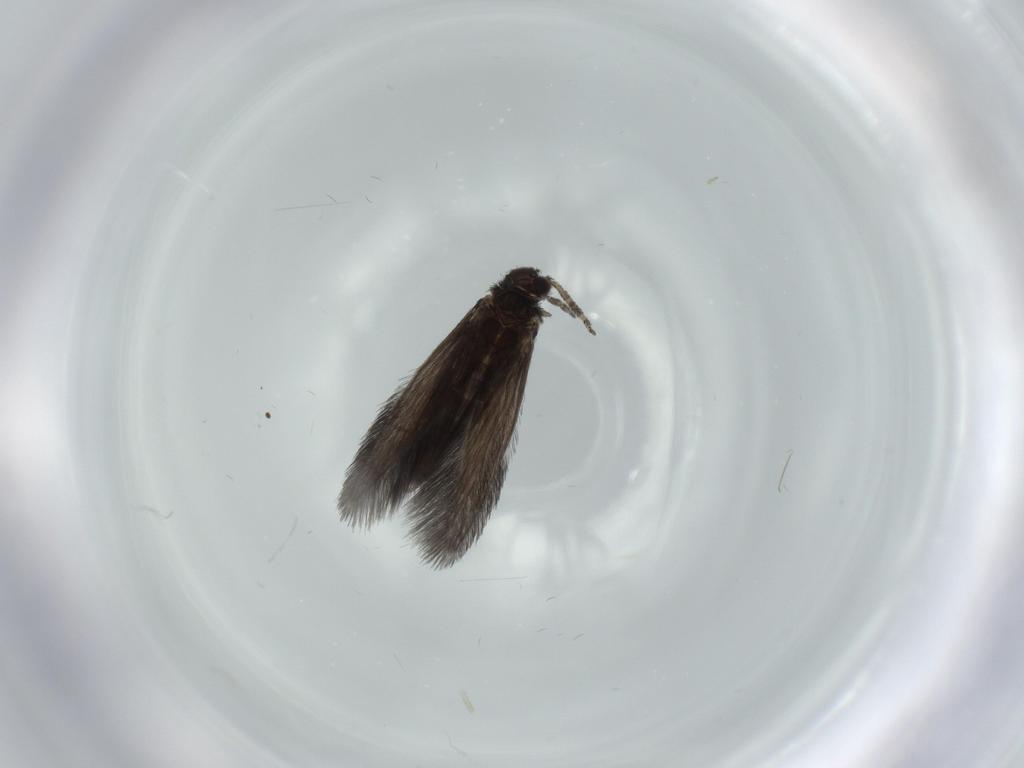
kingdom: Animalia
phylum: Arthropoda
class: Insecta
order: Trichoptera
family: Hydroptilidae
